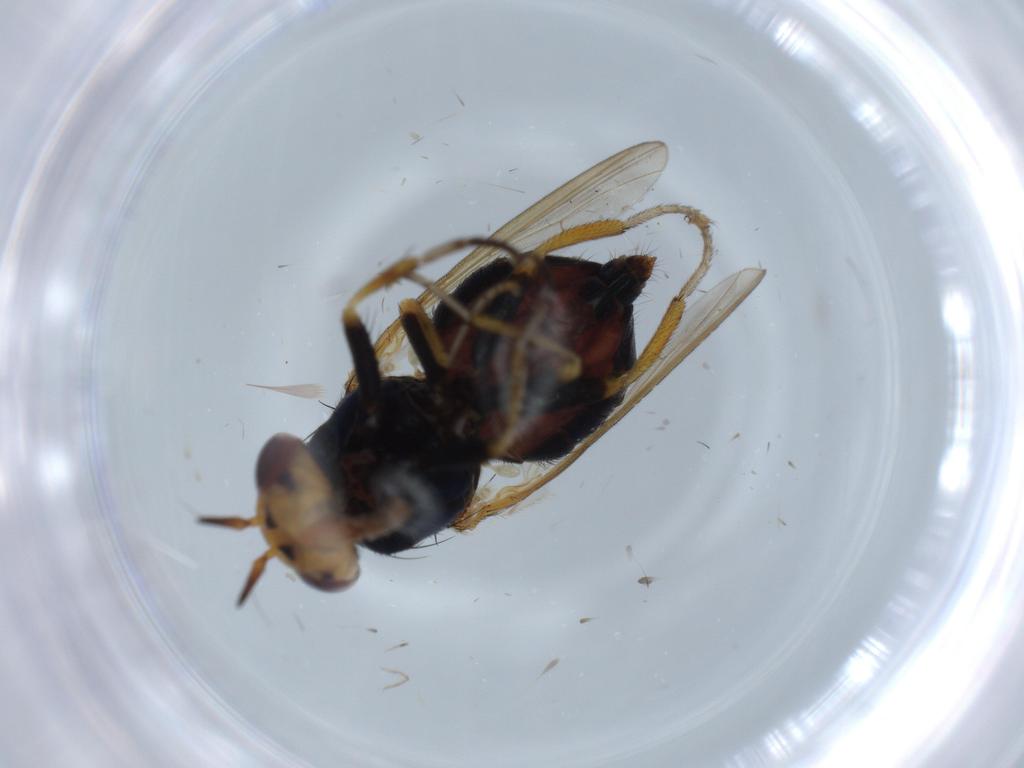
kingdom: Animalia
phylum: Arthropoda
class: Insecta
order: Diptera
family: Cecidomyiidae
